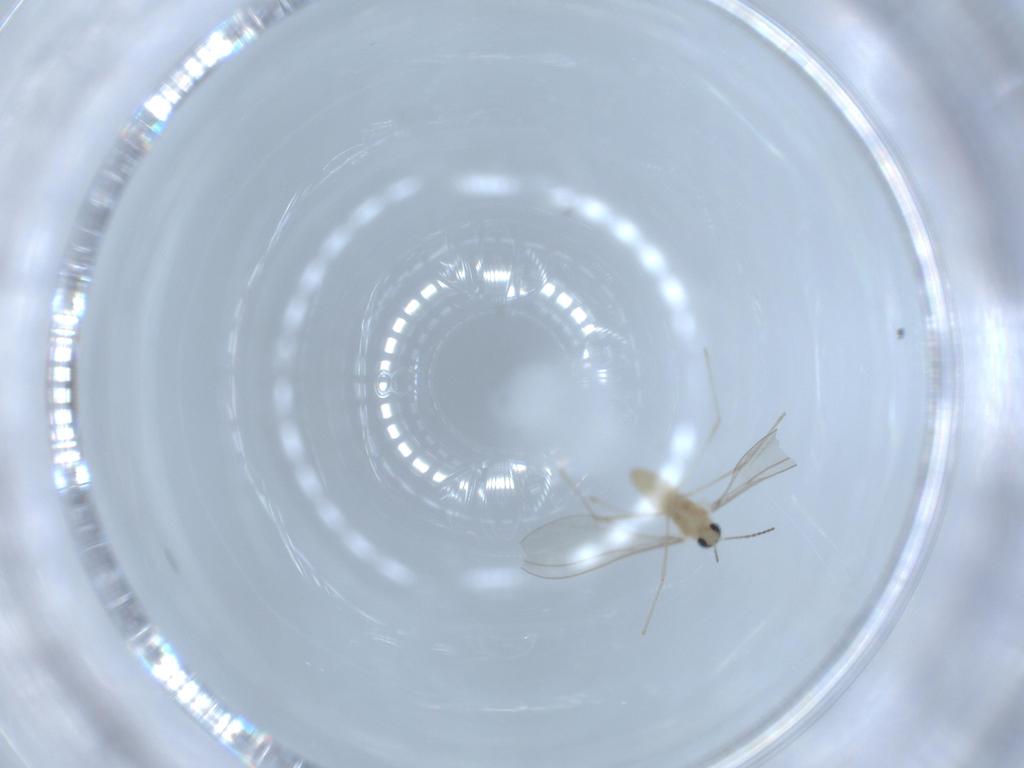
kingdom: Animalia
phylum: Arthropoda
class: Insecta
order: Diptera
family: Cecidomyiidae
